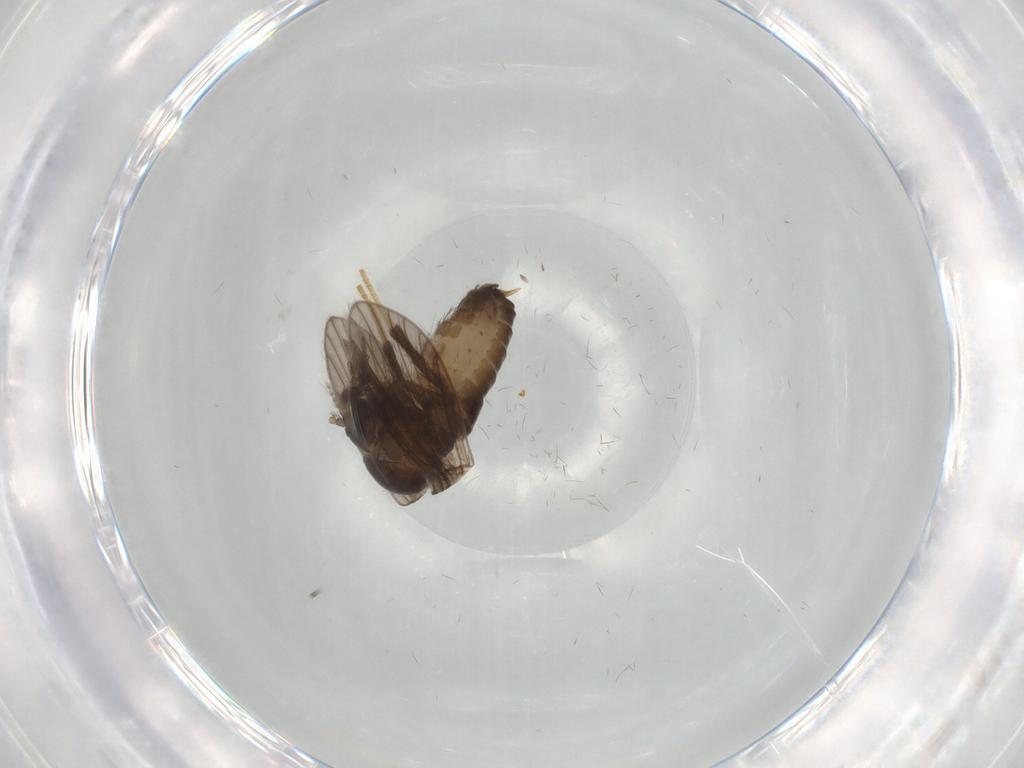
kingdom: Animalia
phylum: Arthropoda
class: Insecta
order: Diptera
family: Psychodidae
